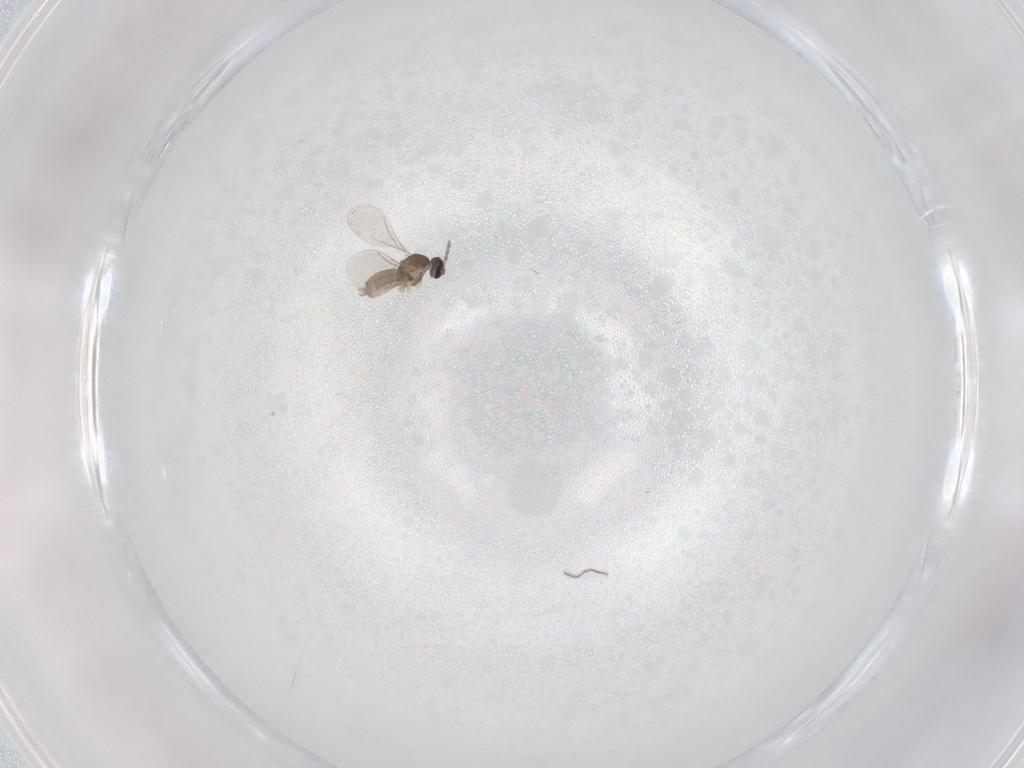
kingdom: Animalia
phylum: Arthropoda
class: Insecta
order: Diptera
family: Cecidomyiidae
